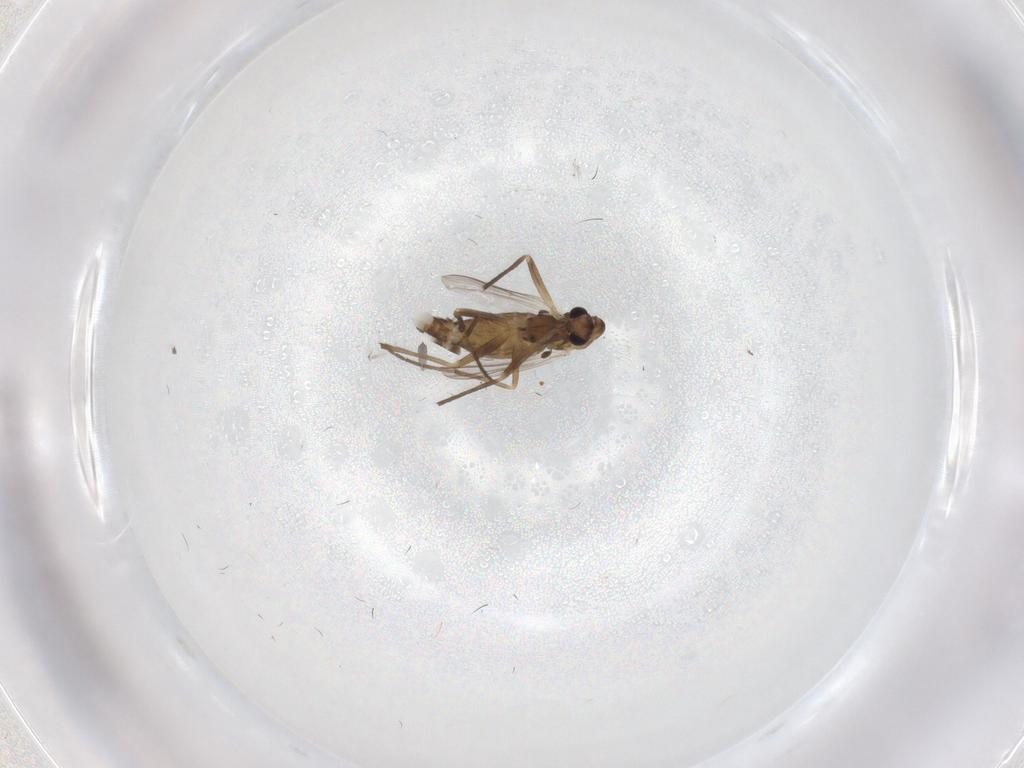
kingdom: Animalia
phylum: Arthropoda
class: Insecta
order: Diptera
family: Chironomidae
